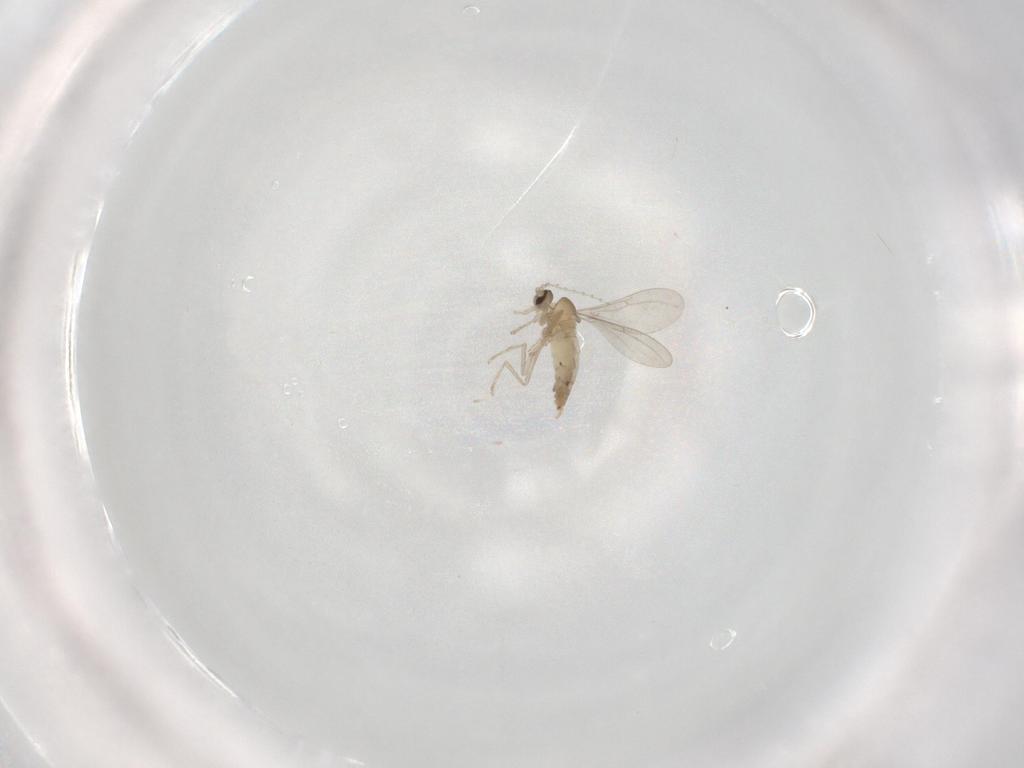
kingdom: Animalia
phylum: Arthropoda
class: Insecta
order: Diptera
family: Cecidomyiidae
